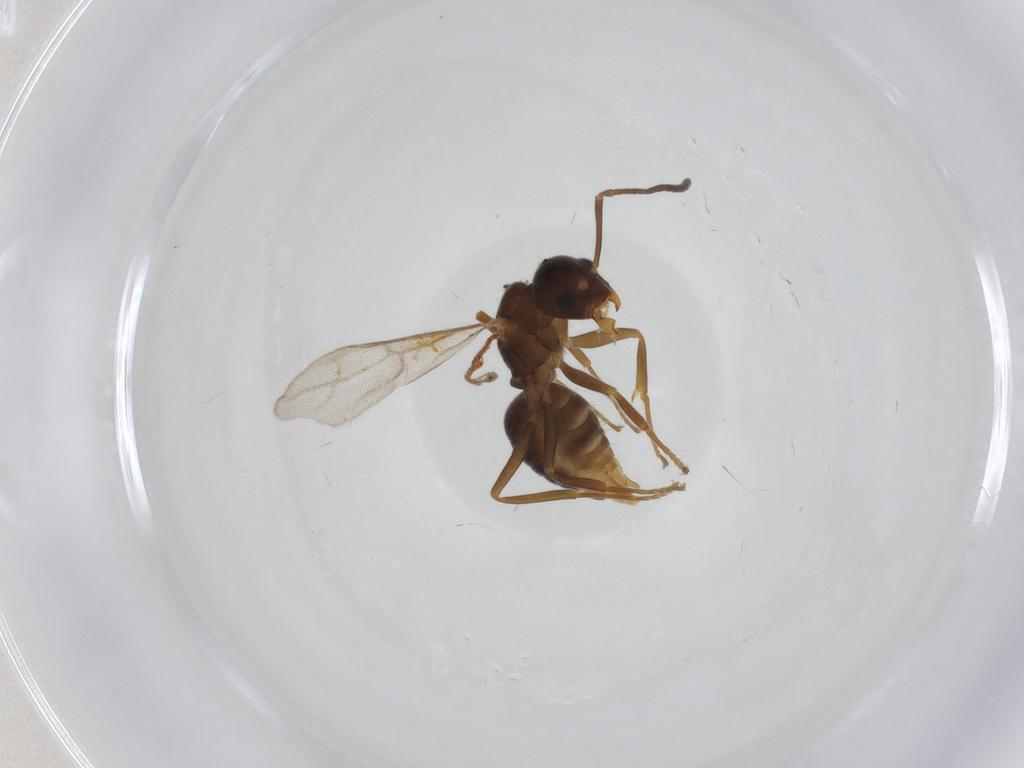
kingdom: Animalia
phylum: Arthropoda
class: Insecta
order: Hymenoptera
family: Formicidae
